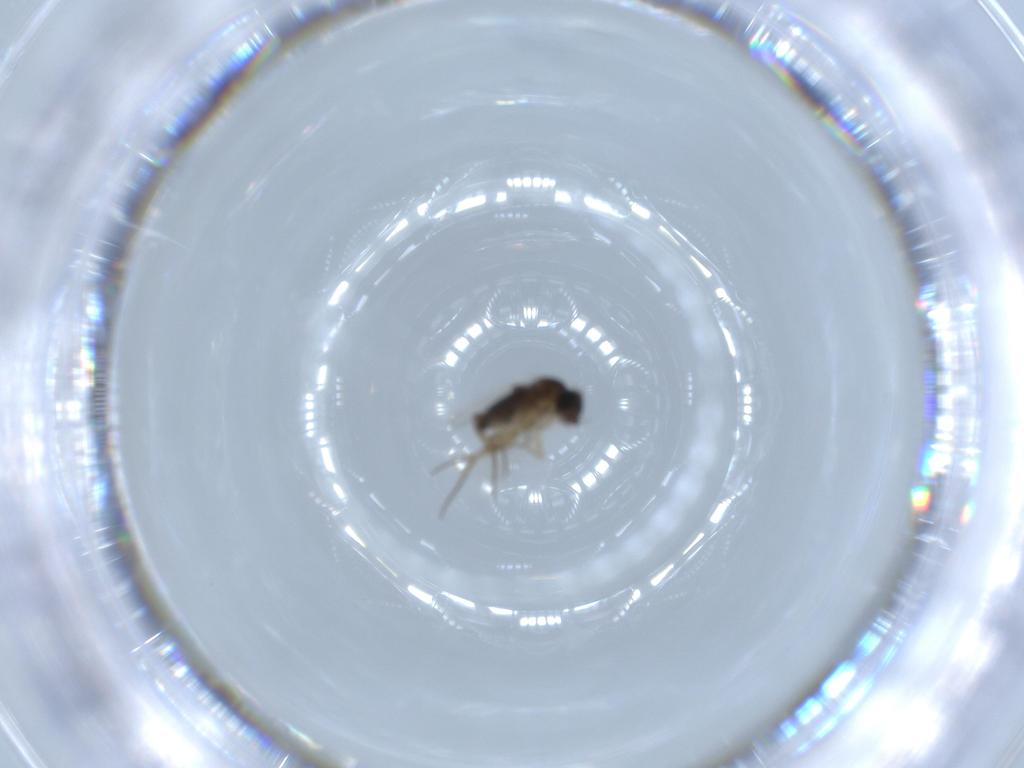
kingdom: Animalia
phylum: Arthropoda
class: Insecta
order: Diptera
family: Phoridae
